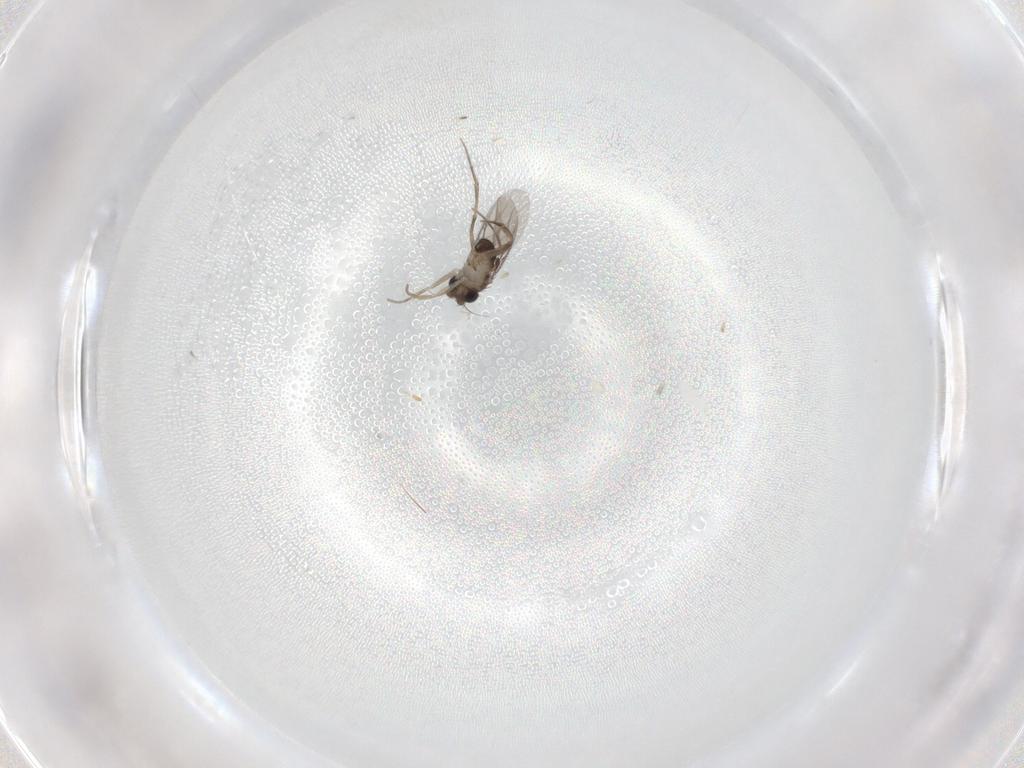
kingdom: Animalia
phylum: Arthropoda
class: Insecta
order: Diptera
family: Phoridae
